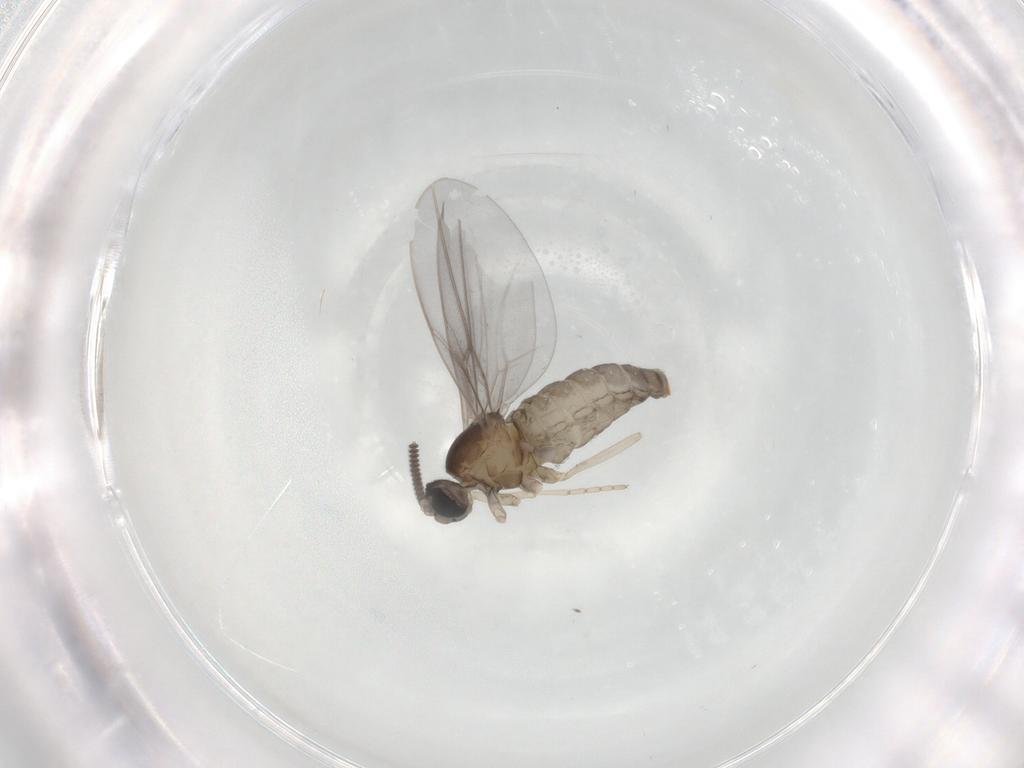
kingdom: Animalia
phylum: Arthropoda
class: Insecta
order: Diptera
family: Cecidomyiidae
